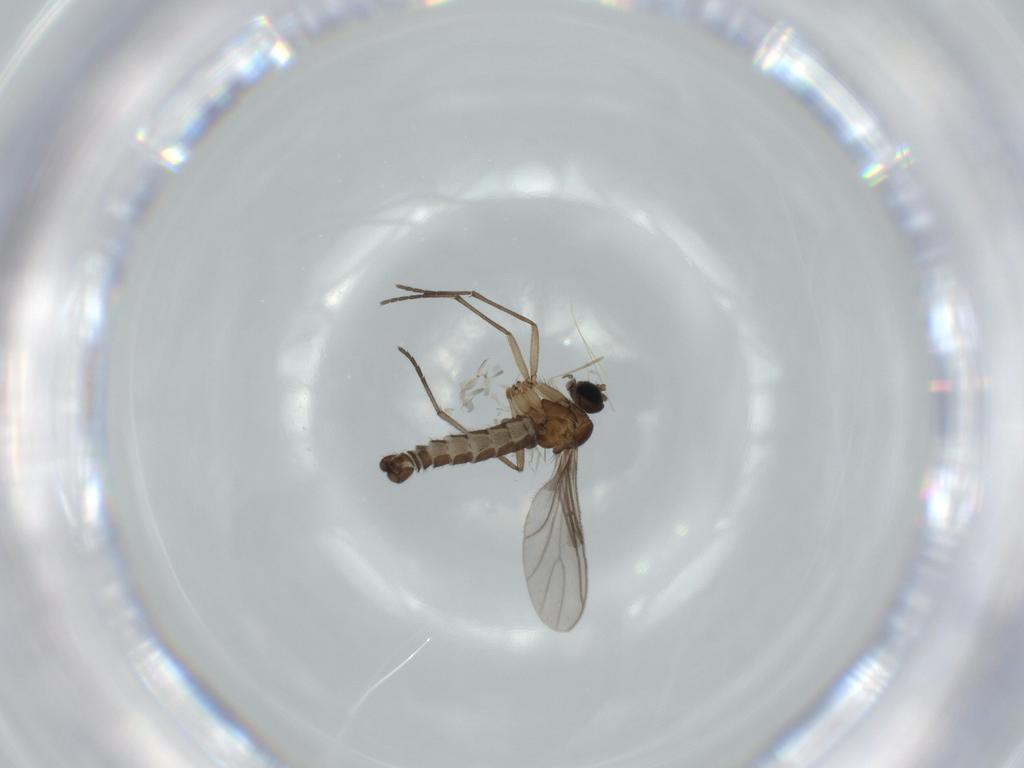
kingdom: Animalia
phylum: Arthropoda
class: Insecta
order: Diptera
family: Sciaridae
